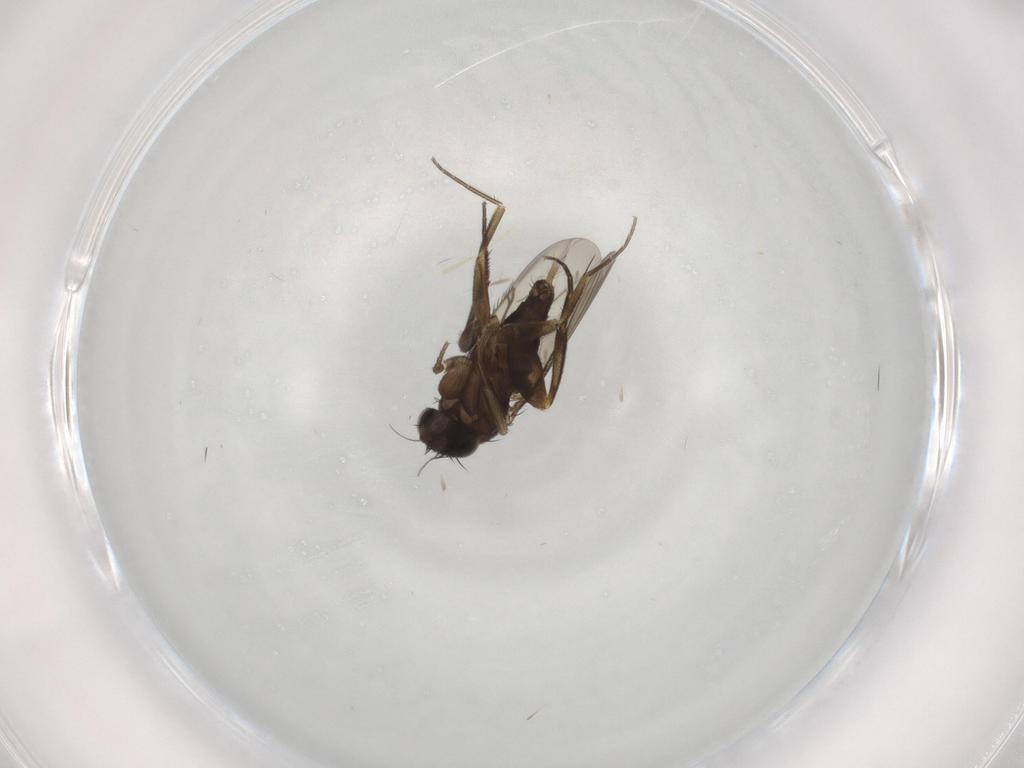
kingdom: Animalia
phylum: Arthropoda
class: Insecta
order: Diptera
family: Phoridae
